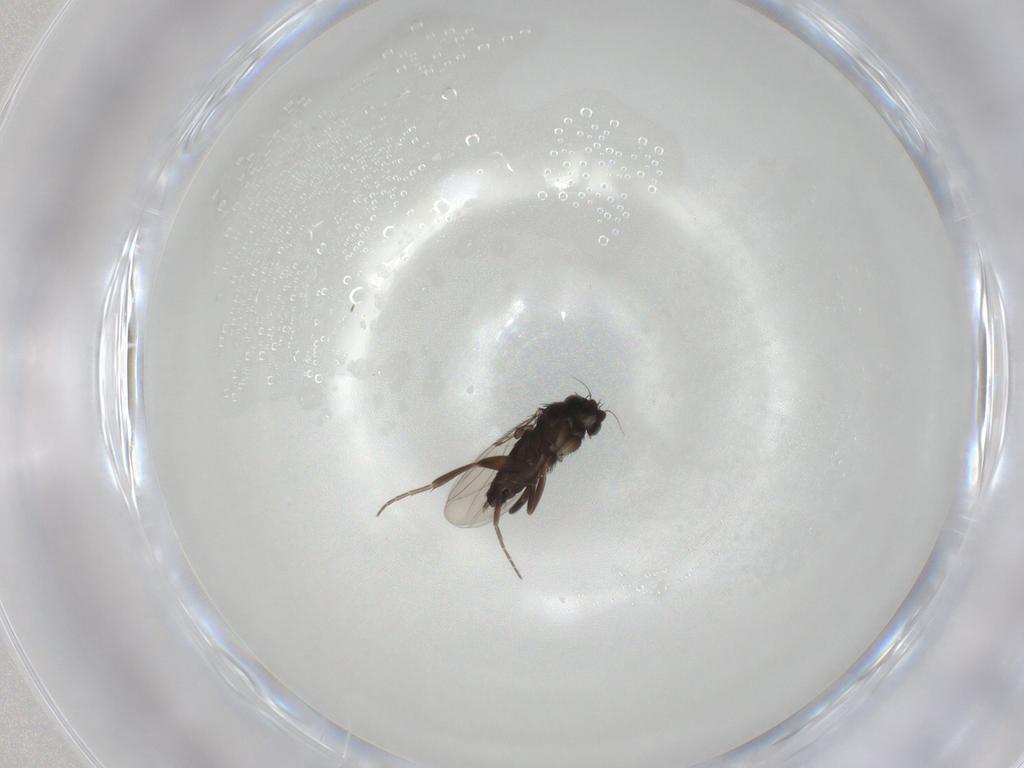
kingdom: Animalia
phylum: Arthropoda
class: Insecta
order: Diptera
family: Phoridae
